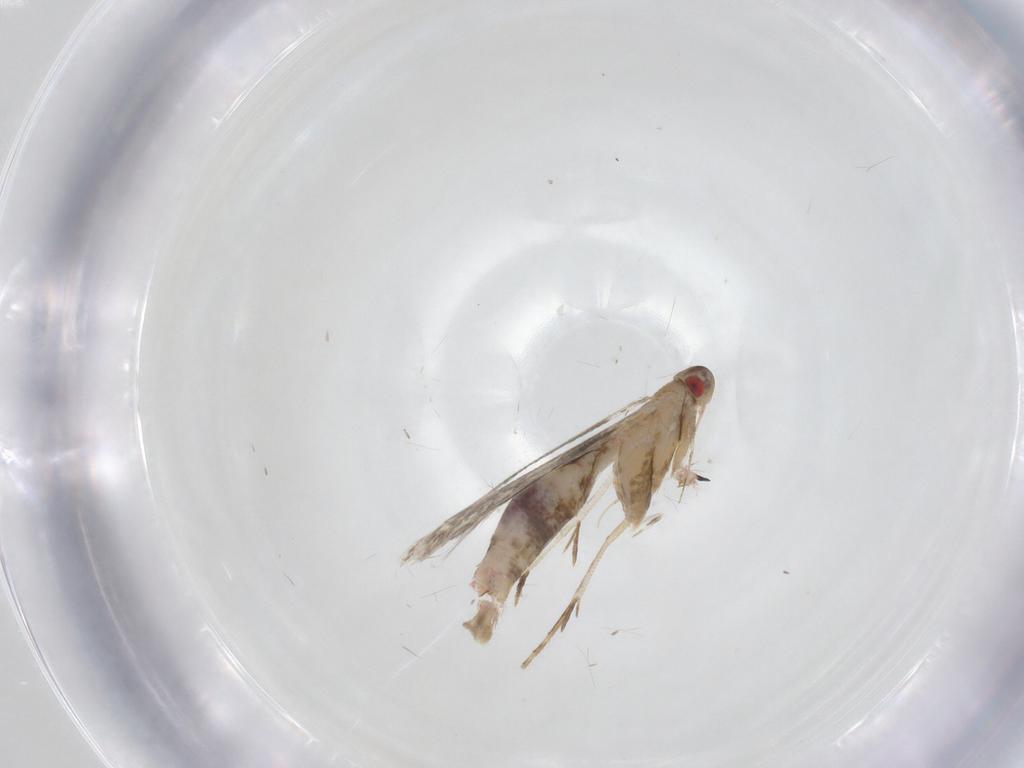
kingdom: Animalia
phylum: Arthropoda
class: Insecta
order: Lepidoptera
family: Cosmopterigidae
